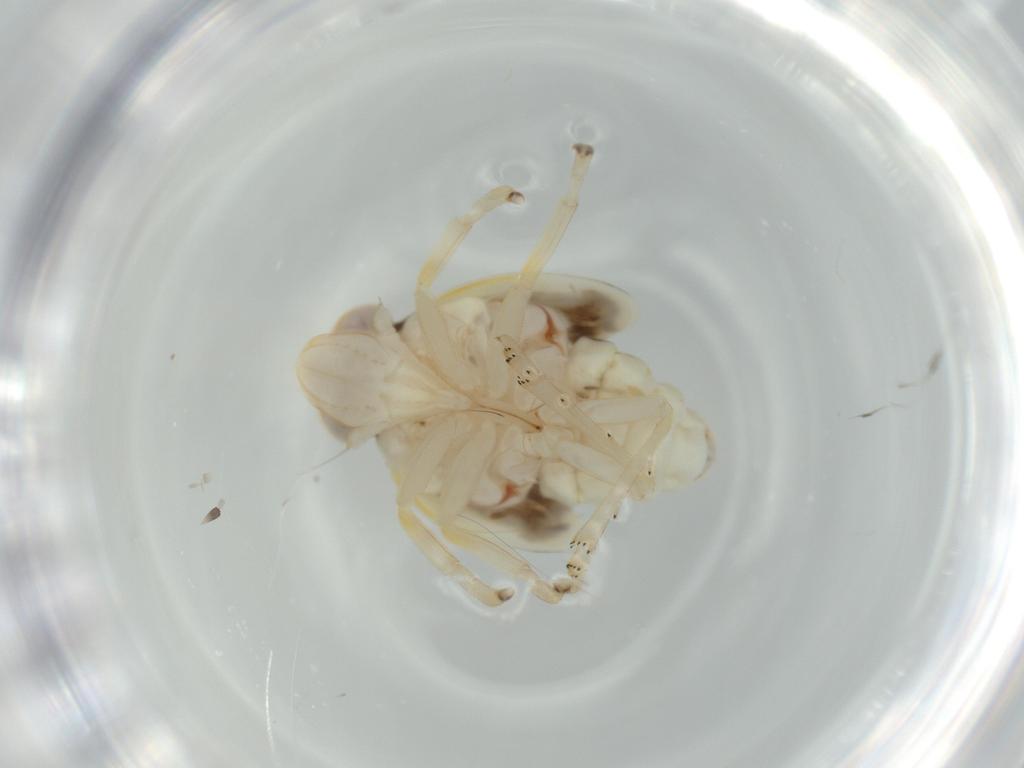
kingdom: Animalia
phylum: Arthropoda
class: Insecta
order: Hemiptera
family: Nogodinidae
